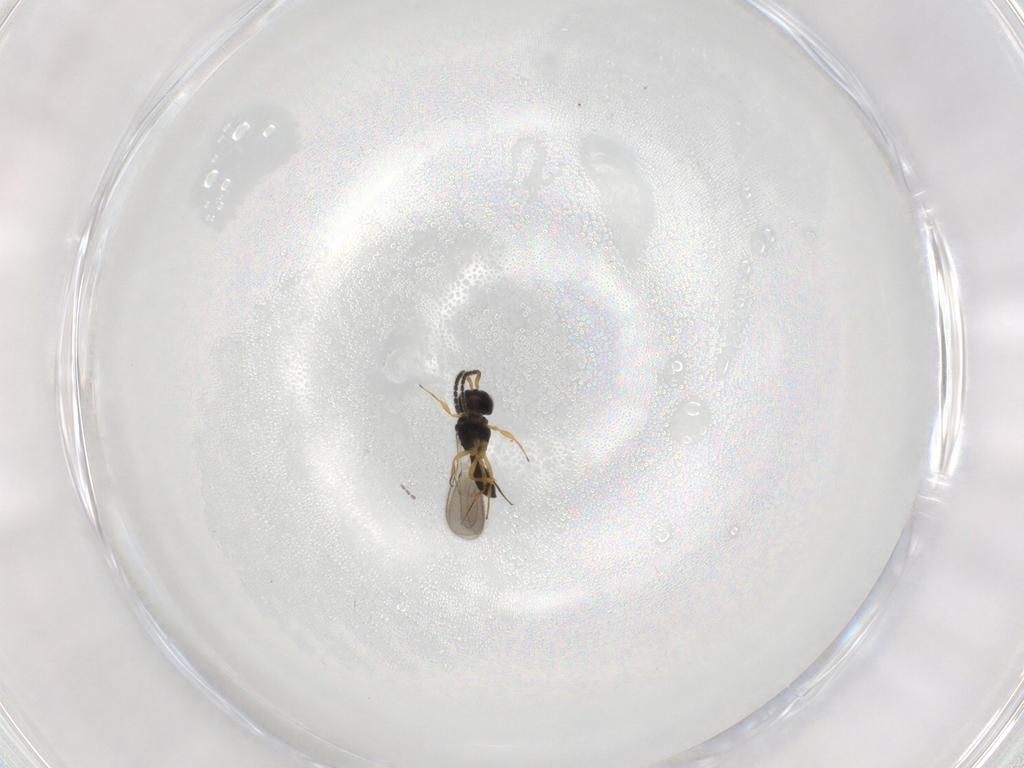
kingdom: Animalia
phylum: Arthropoda
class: Insecta
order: Hymenoptera
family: Scelionidae
